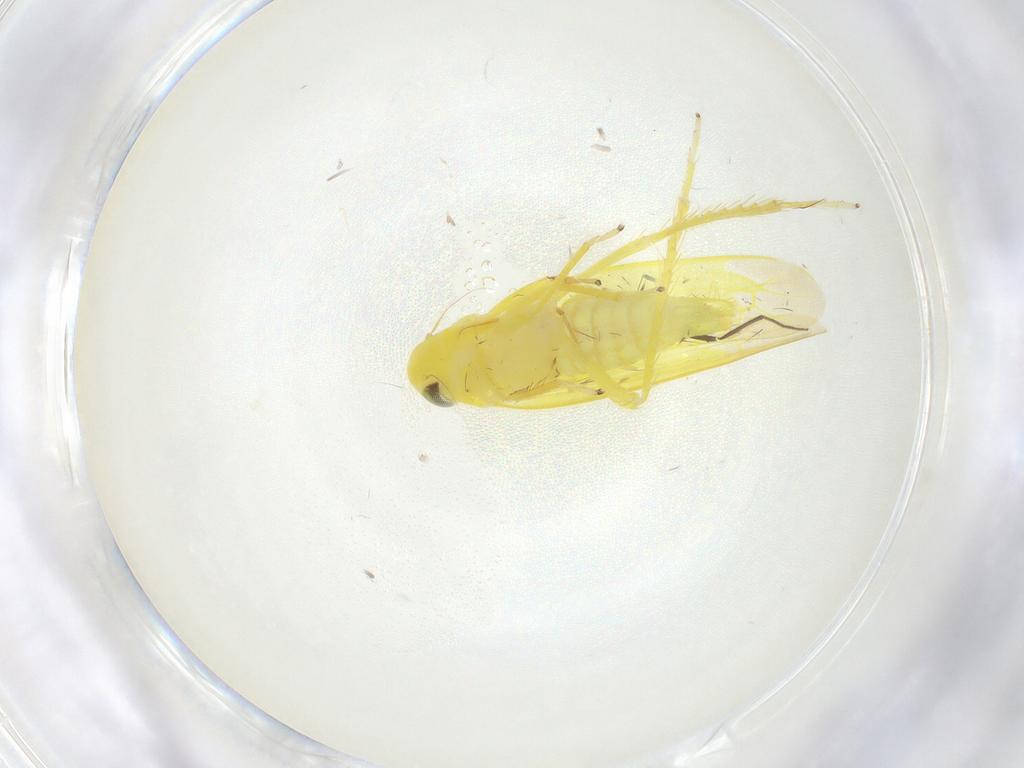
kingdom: Animalia
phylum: Arthropoda
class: Insecta
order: Hemiptera
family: Cicadellidae
